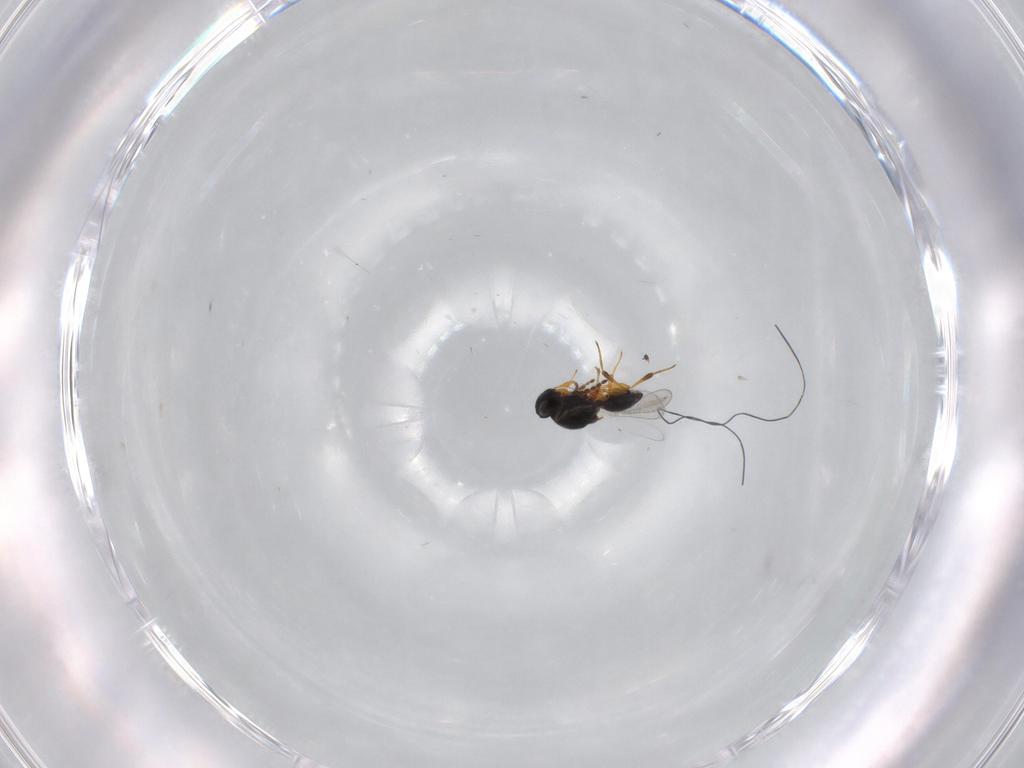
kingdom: Animalia
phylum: Arthropoda
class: Insecta
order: Hymenoptera
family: Platygastridae
